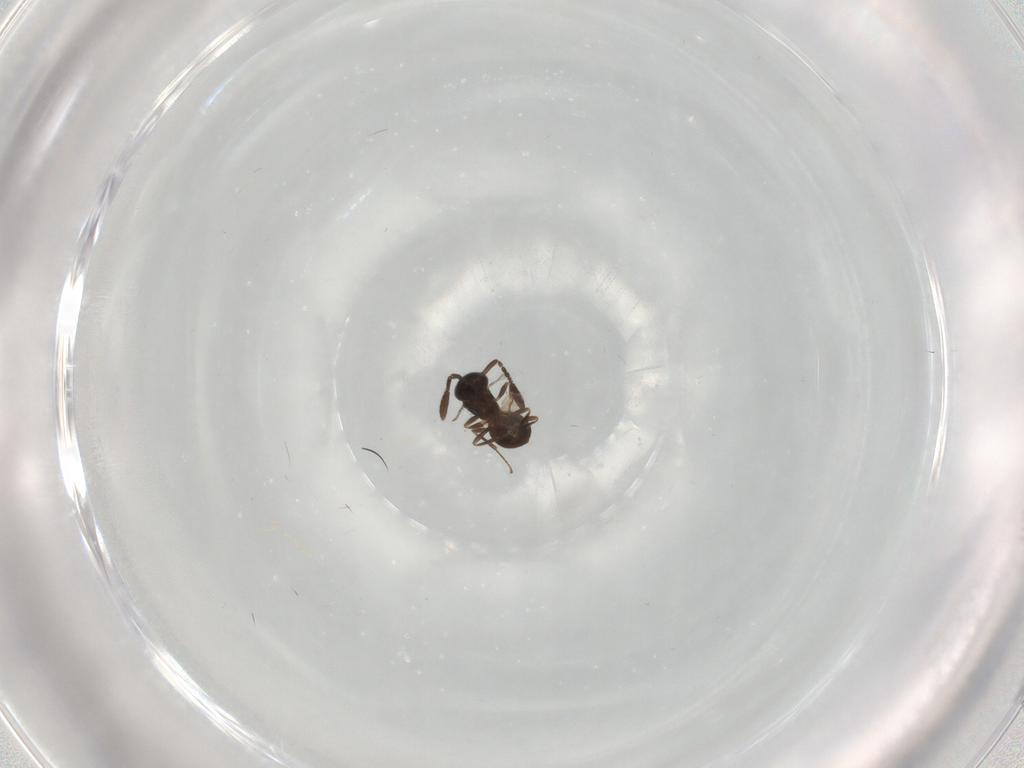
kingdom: Animalia
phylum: Arthropoda
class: Insecta
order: Hymenoptera
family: Scelionidae
